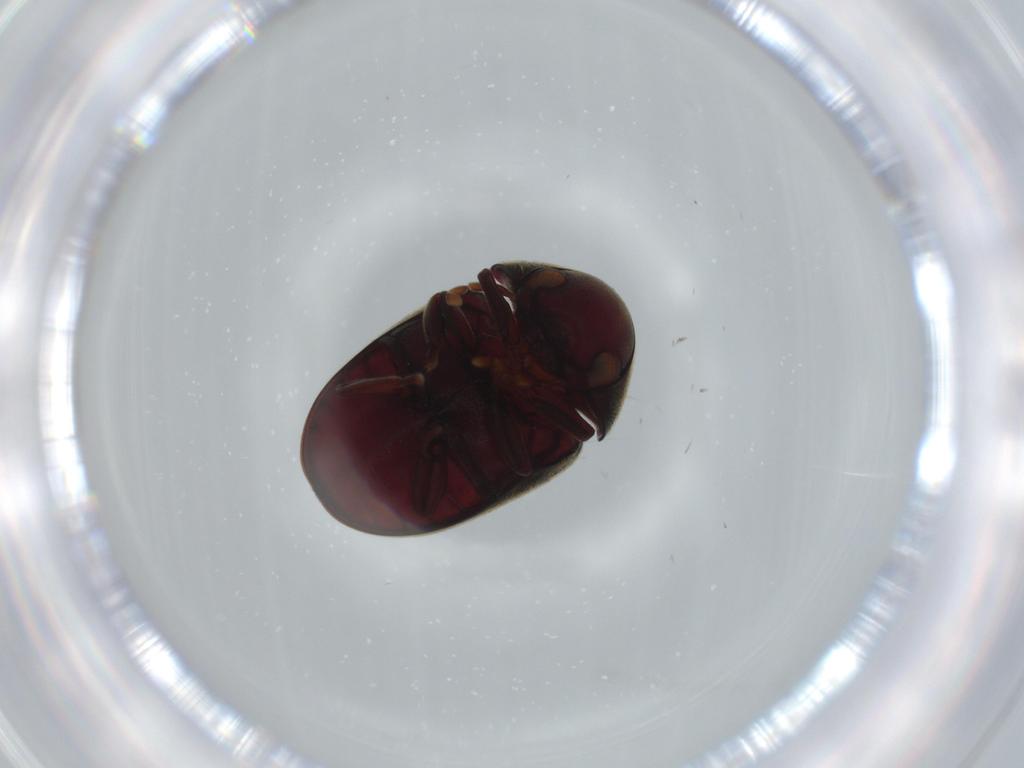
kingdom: Animalia
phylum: Arthropoda
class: Insecta
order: Coleoptera
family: Ptinidae
